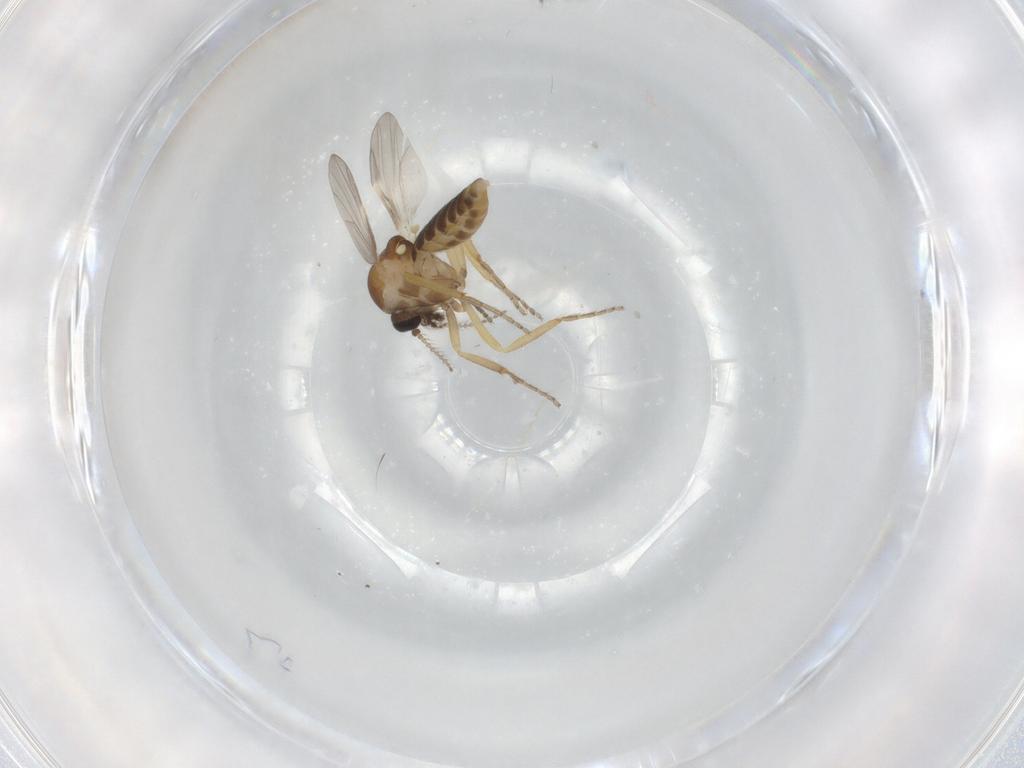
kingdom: Animalia
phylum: Arthropoda
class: Insecta
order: Diptera
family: Ceratopogonidae
